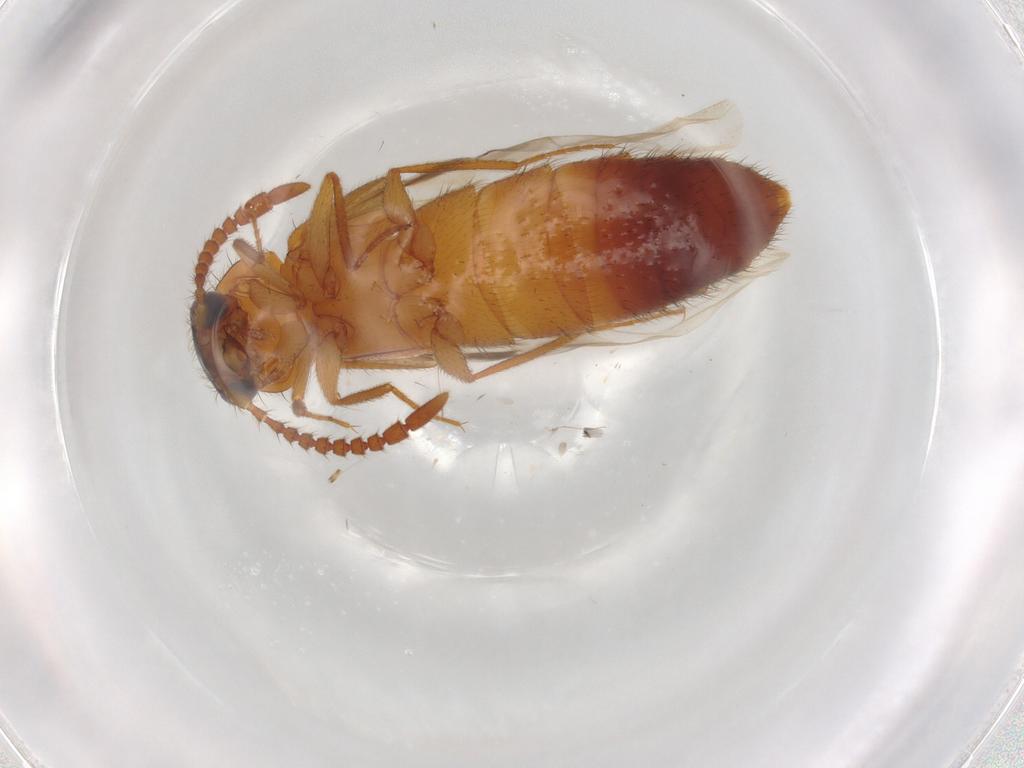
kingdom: Animalia
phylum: Arthropoda
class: Insecta
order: Coleoptera
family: Staphylinidae
